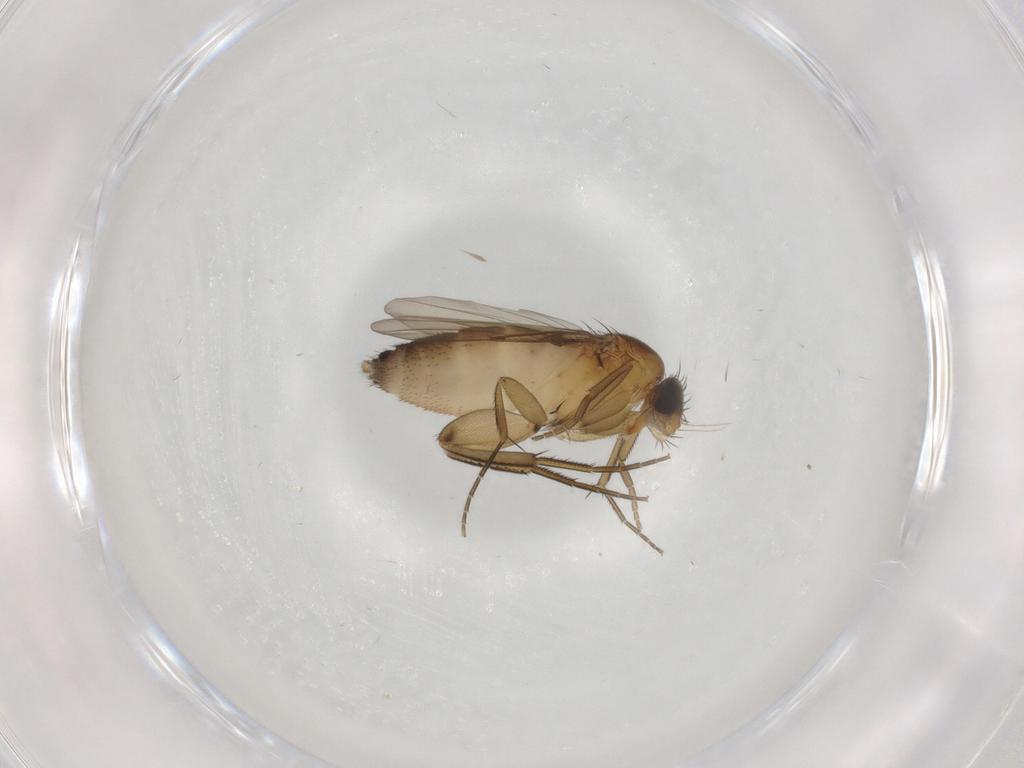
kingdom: Animalia
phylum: Arthropoda
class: Insecta
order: Diptera
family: Phoridae
